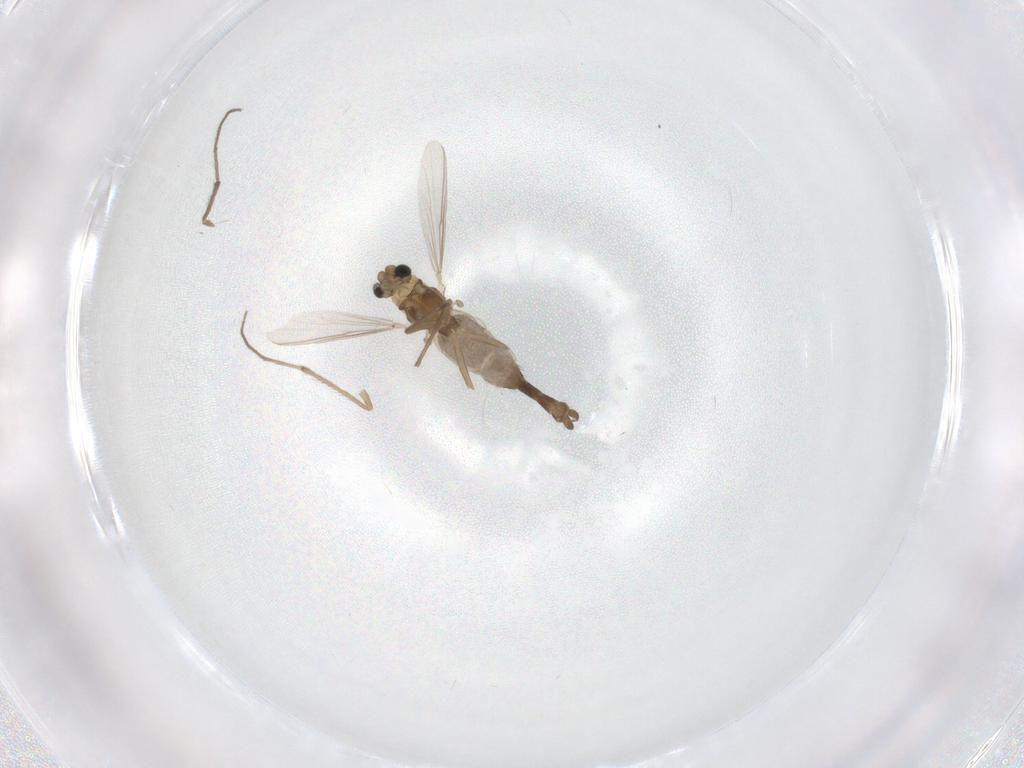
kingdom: Animalia
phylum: Arthropoda
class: Insecta
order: Diptera
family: Chironomidae
